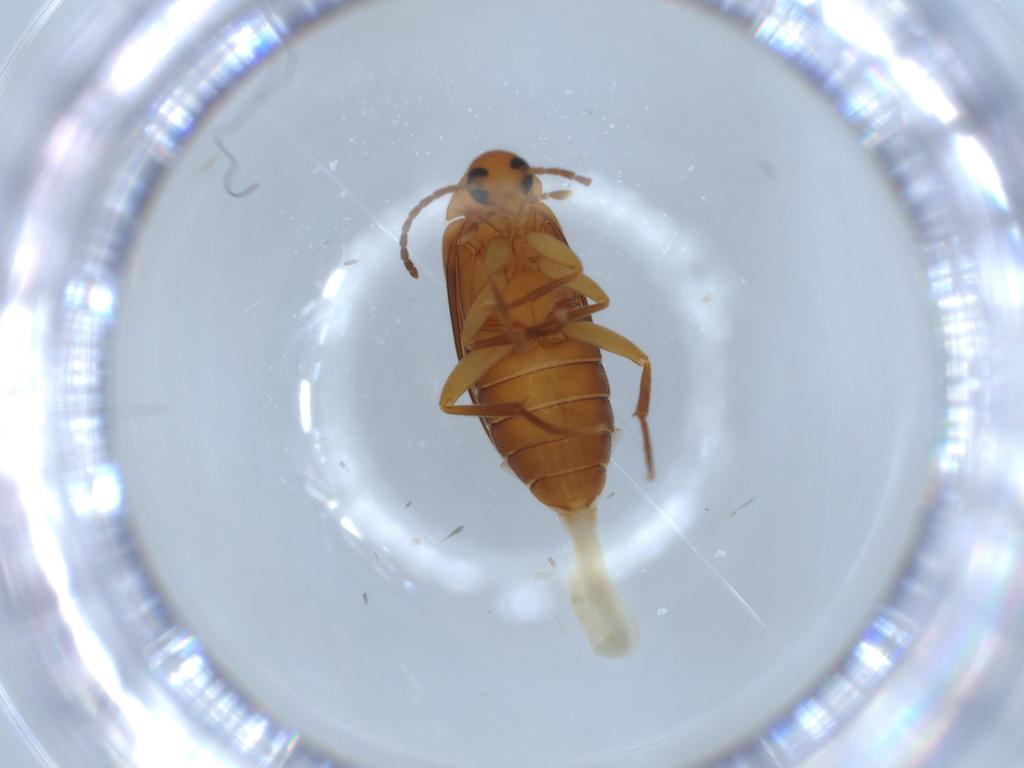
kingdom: Animalia
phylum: Arthropoda
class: Insecta
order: Coleoptera
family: Scraptiidae
